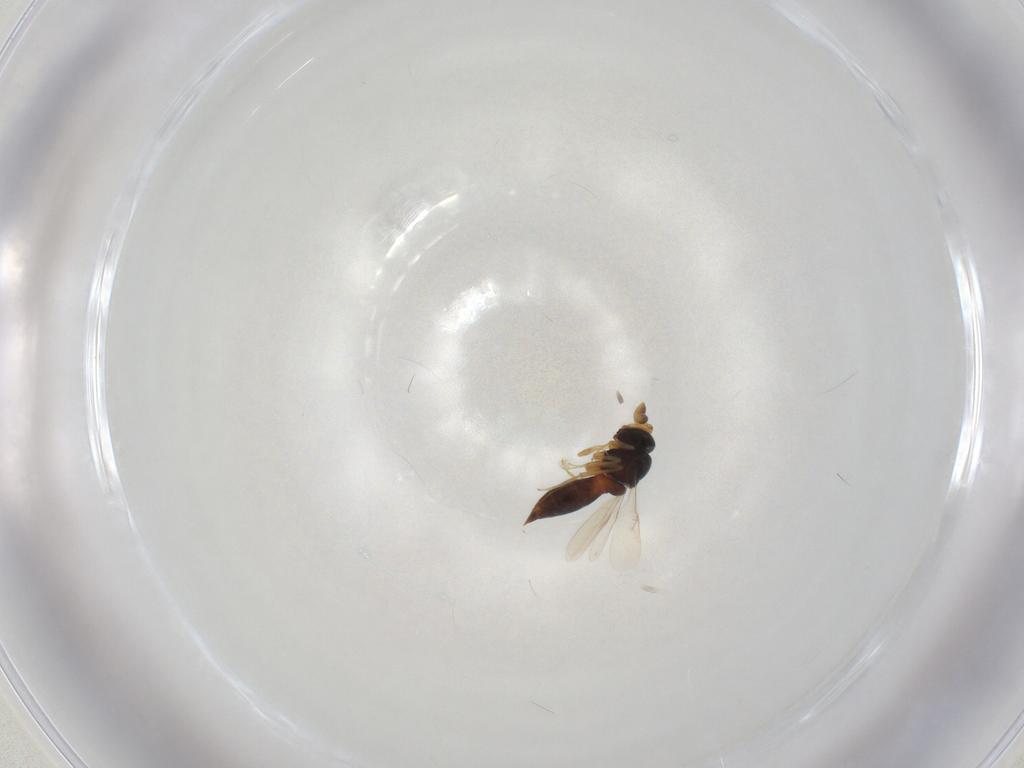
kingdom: Animalia
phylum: Arthropoda
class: Insecta
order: Hymenoptera
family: Scelionidae
